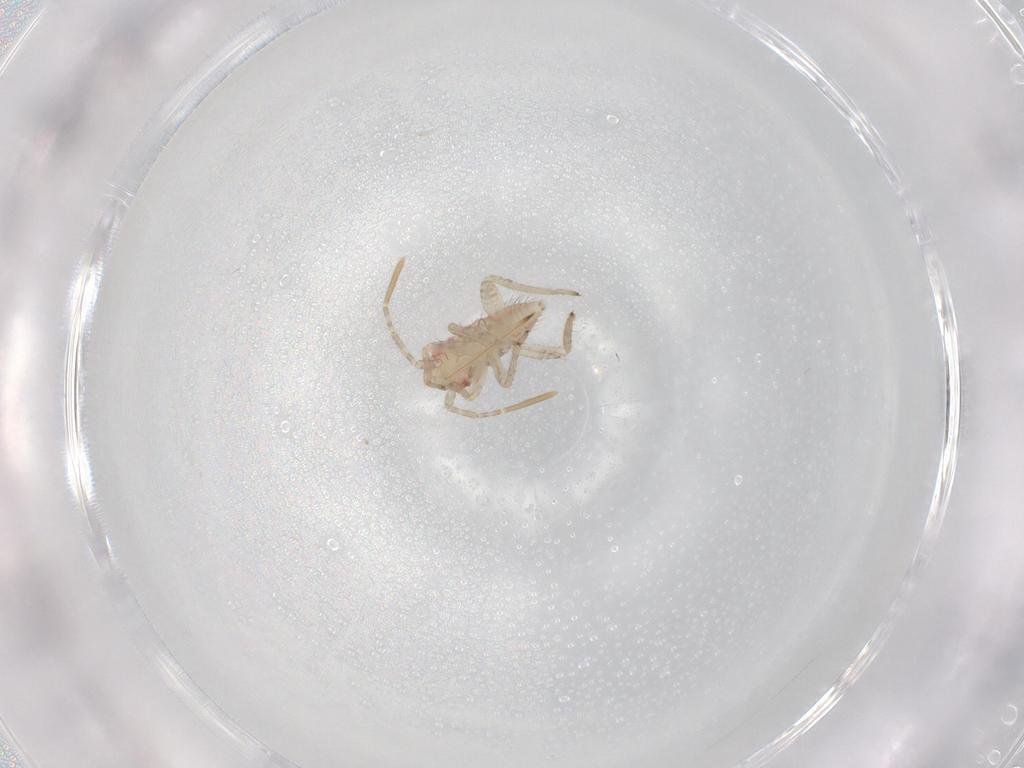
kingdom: Animalia
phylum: Arthropoda
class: Insecta
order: Hemiptera
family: Miridae
